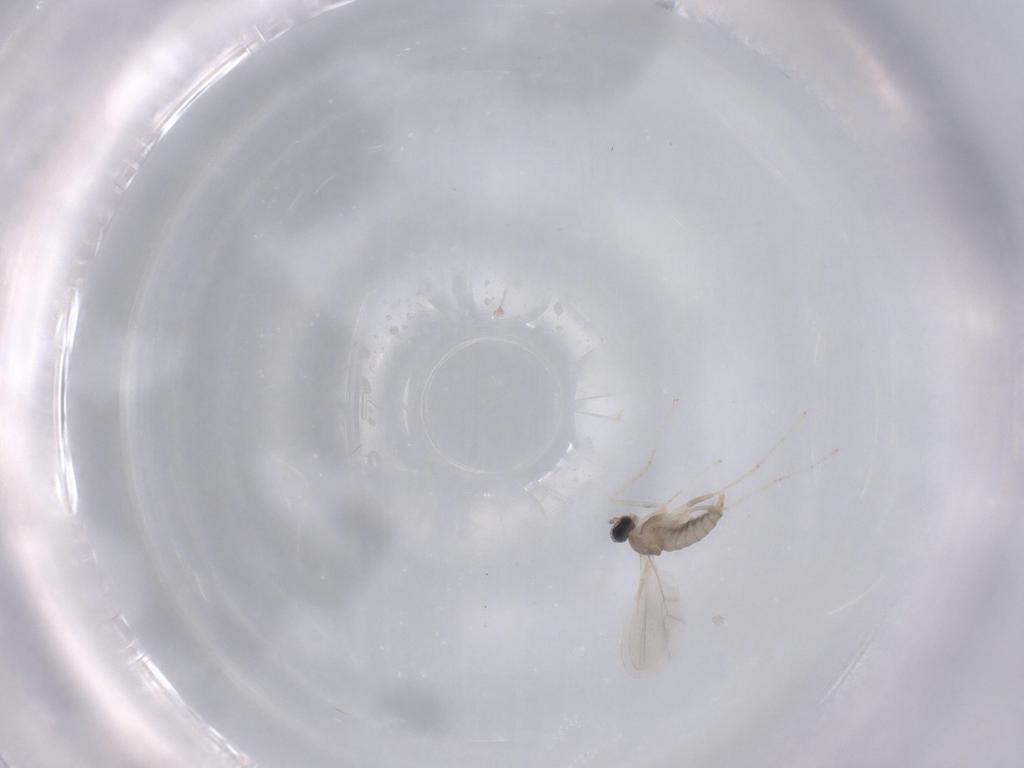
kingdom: Animalia
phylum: Arthropoda
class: Insecta
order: Diptera
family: Cecidomyiidae
